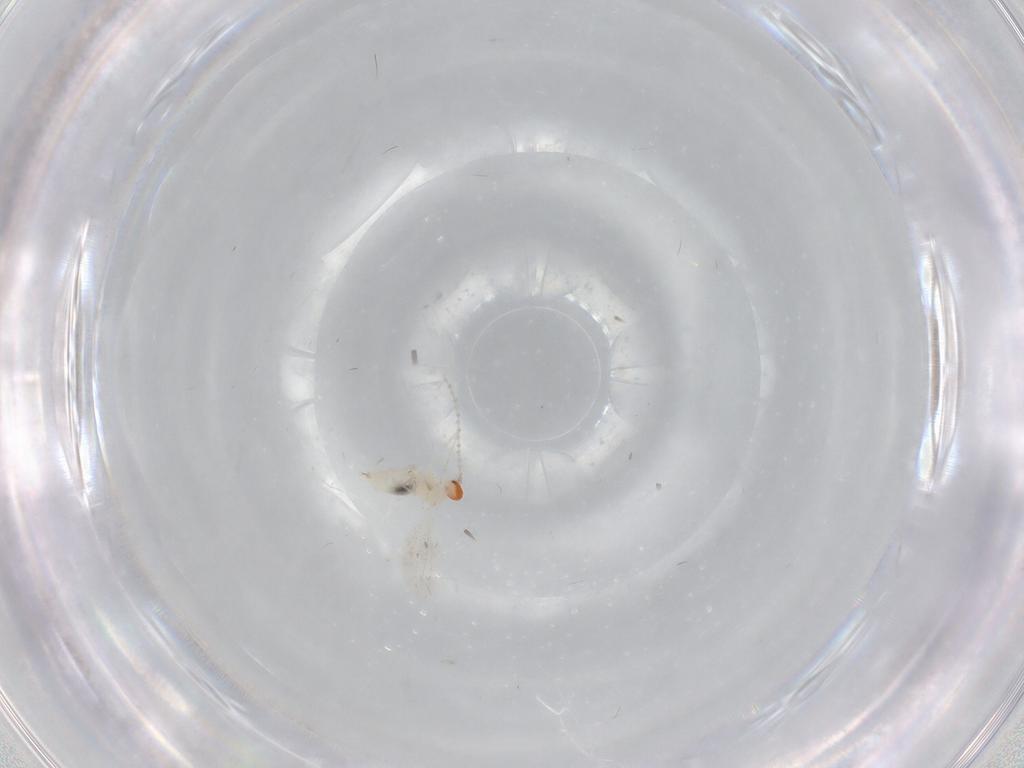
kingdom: Animalia
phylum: Arthropoda
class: Insecta
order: Diptera
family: Cecidomyiidae
